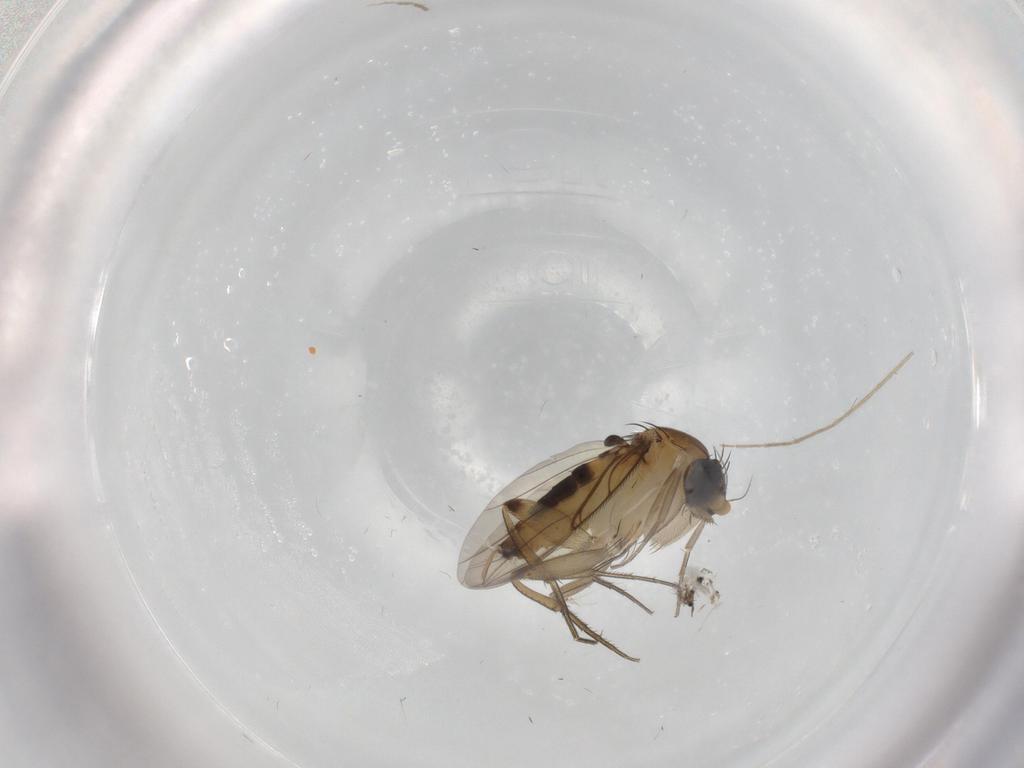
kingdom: Animalia
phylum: Arthropoda
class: Insecta
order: Diptera
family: Phoridae
